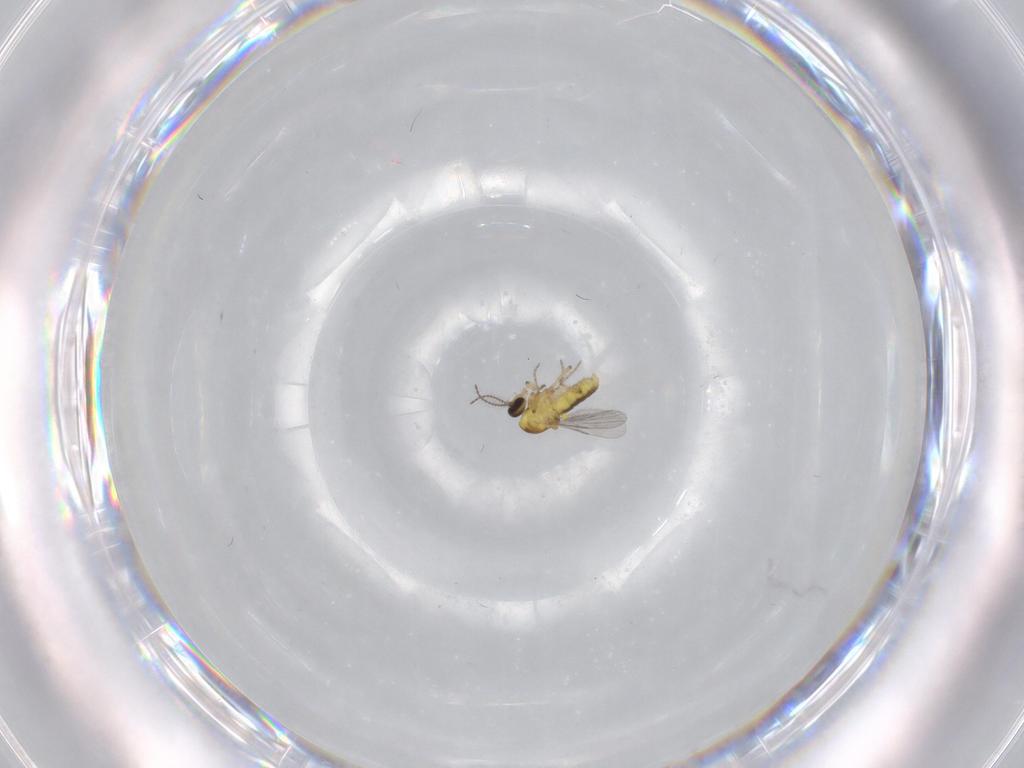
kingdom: Animalia
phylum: Arthropoda
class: Insecta
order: Diptera
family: Ceratopogonidae
